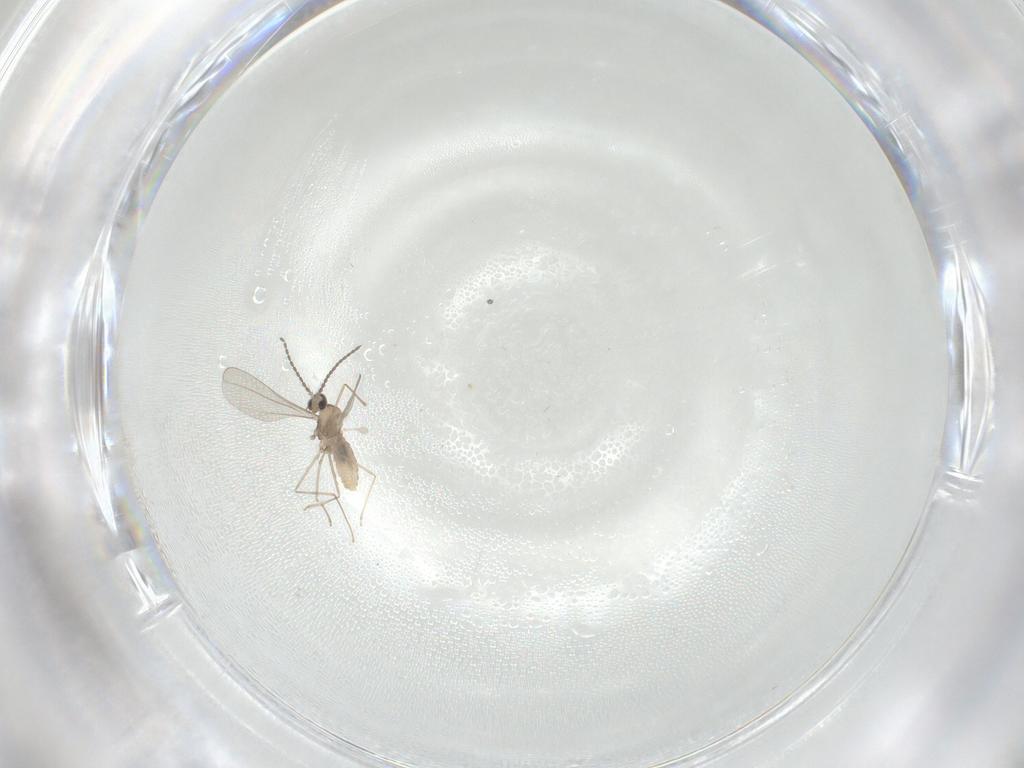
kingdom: Animalia
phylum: Arthropoda
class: Insecta
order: Diptera
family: Cecidomyiidae
